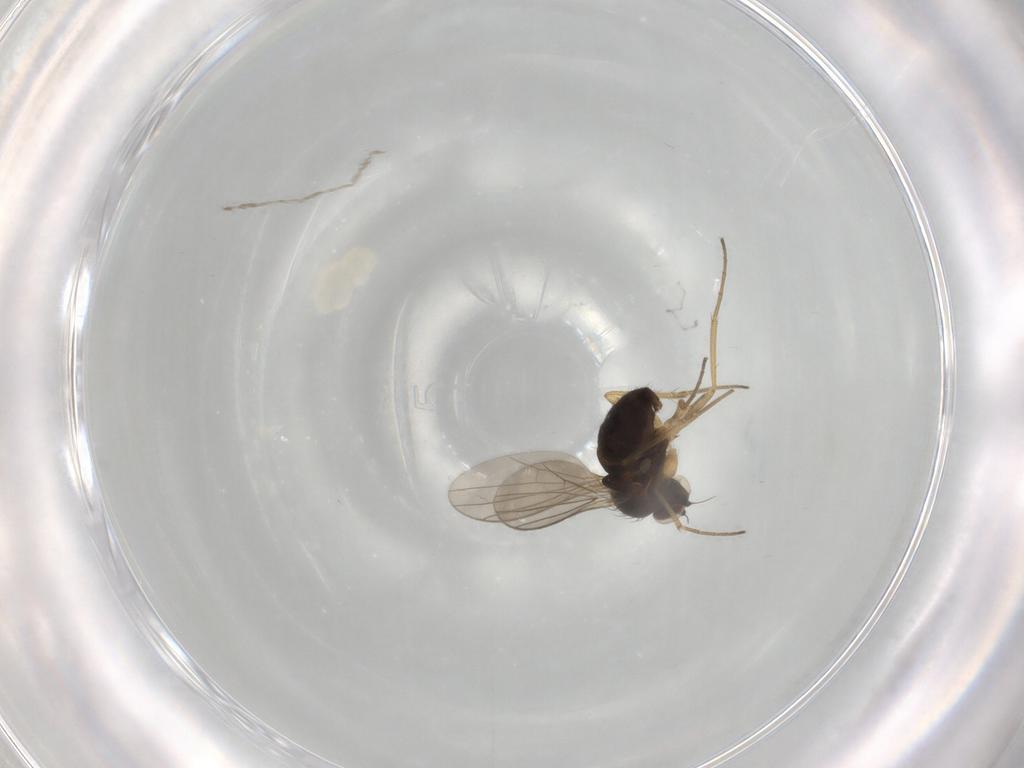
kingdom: Animalia
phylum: Arthropoda
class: Insecta
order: Diptera
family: Dolichopodidae
